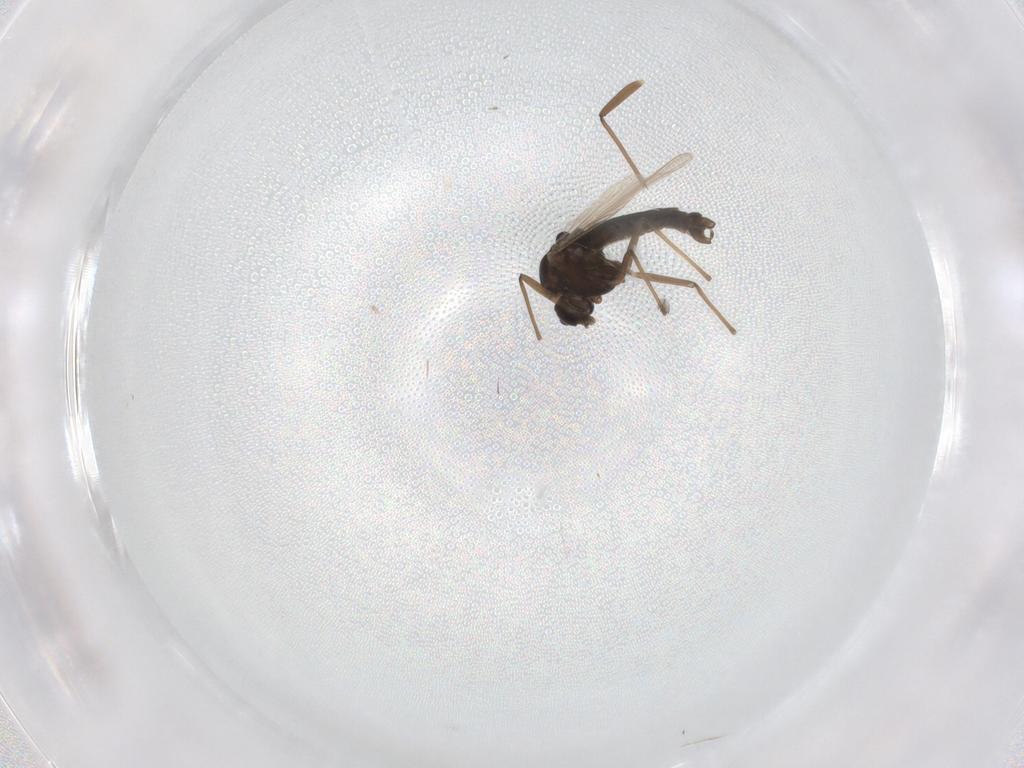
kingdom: Animalia
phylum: Arthropoda
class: Insecta
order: Diptera
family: Chironomidae
